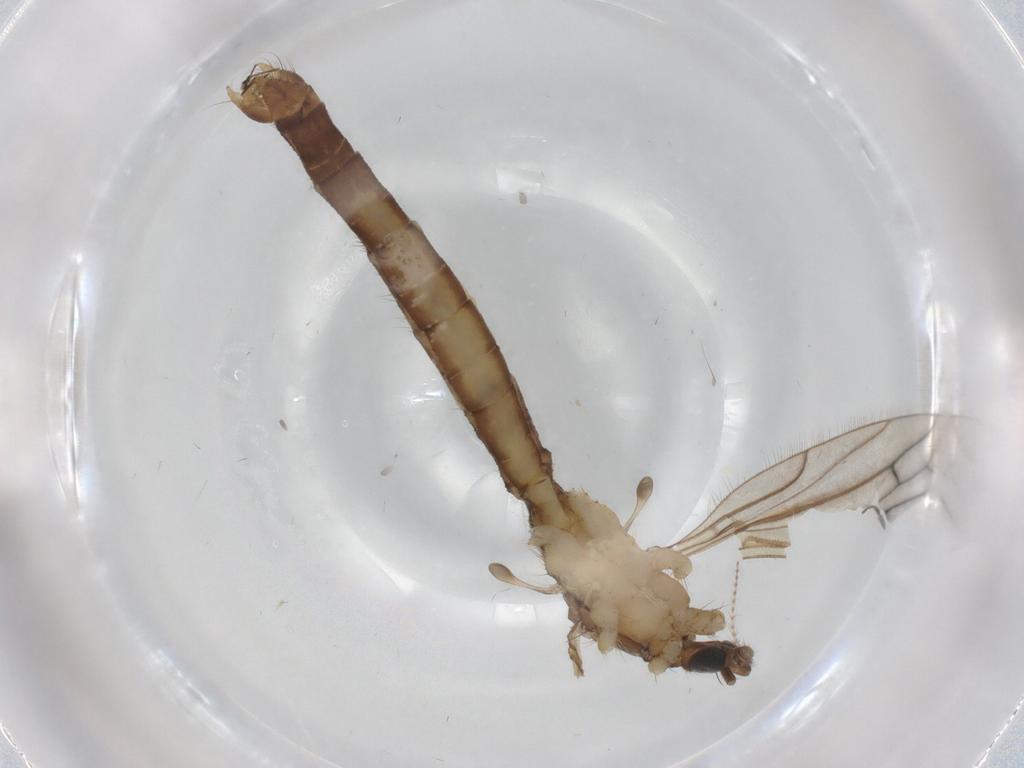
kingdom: Animalia
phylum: Arthropoda
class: Insecta
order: Diptera
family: Limoniidae
